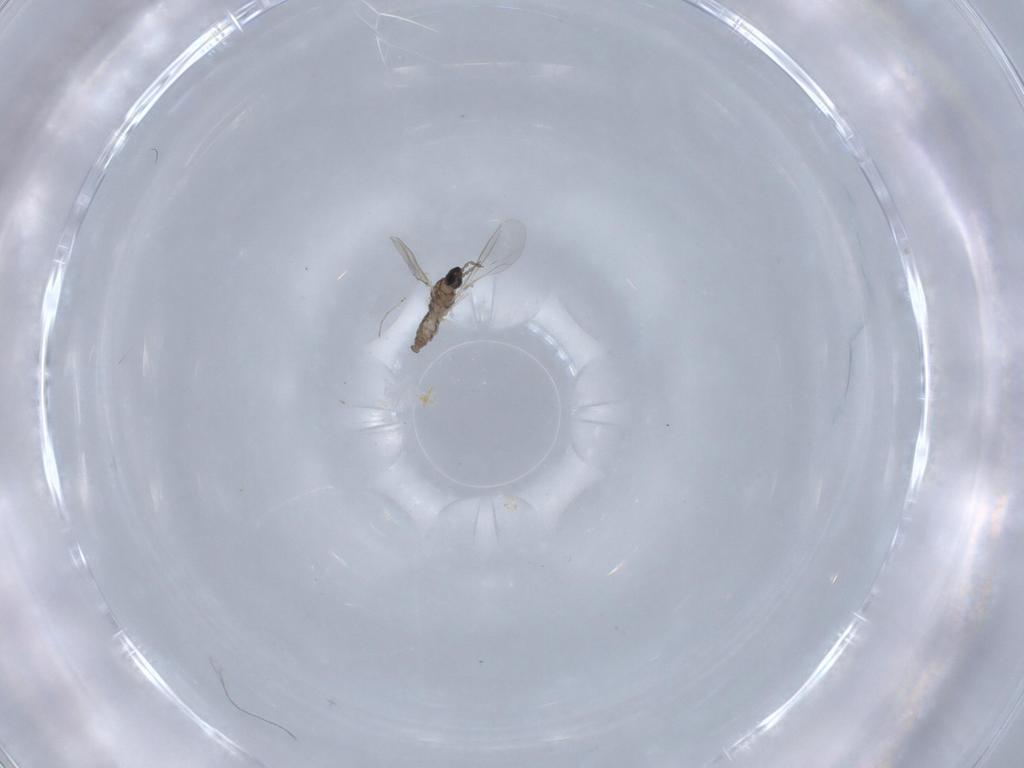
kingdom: Animalia
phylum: Arthropoda
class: Insecta
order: Diptera
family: Cecidomyiidae
